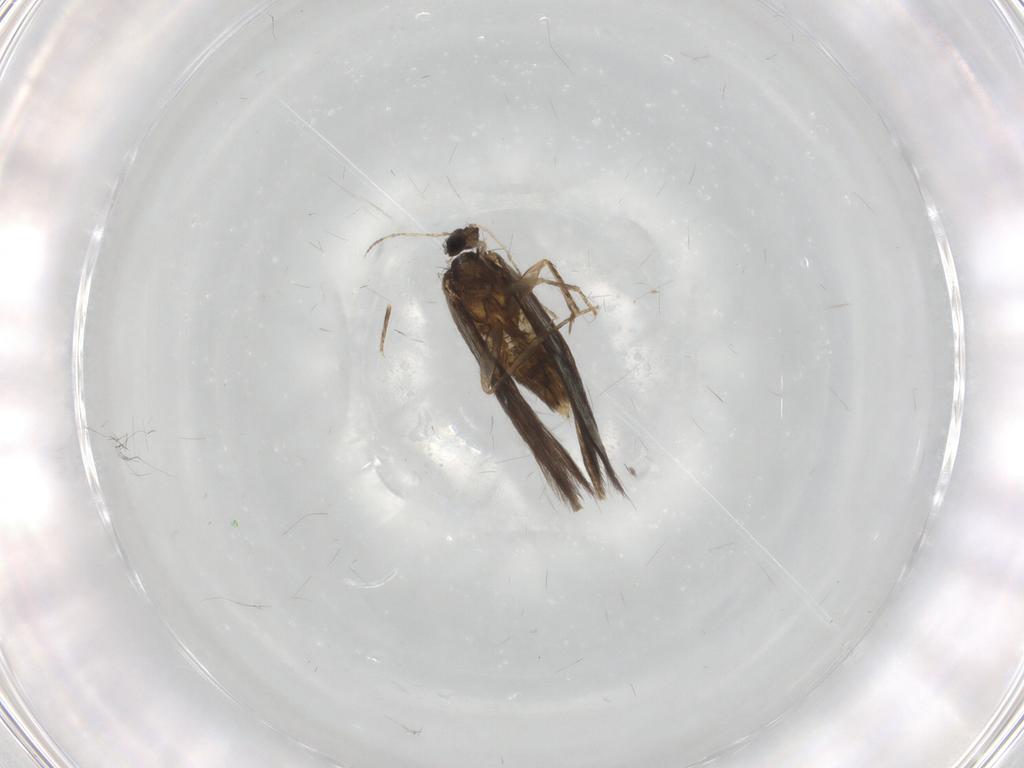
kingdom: Animalia
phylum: Arthropoda
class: Insecta
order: Trichoptera
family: Hydroptilidae
